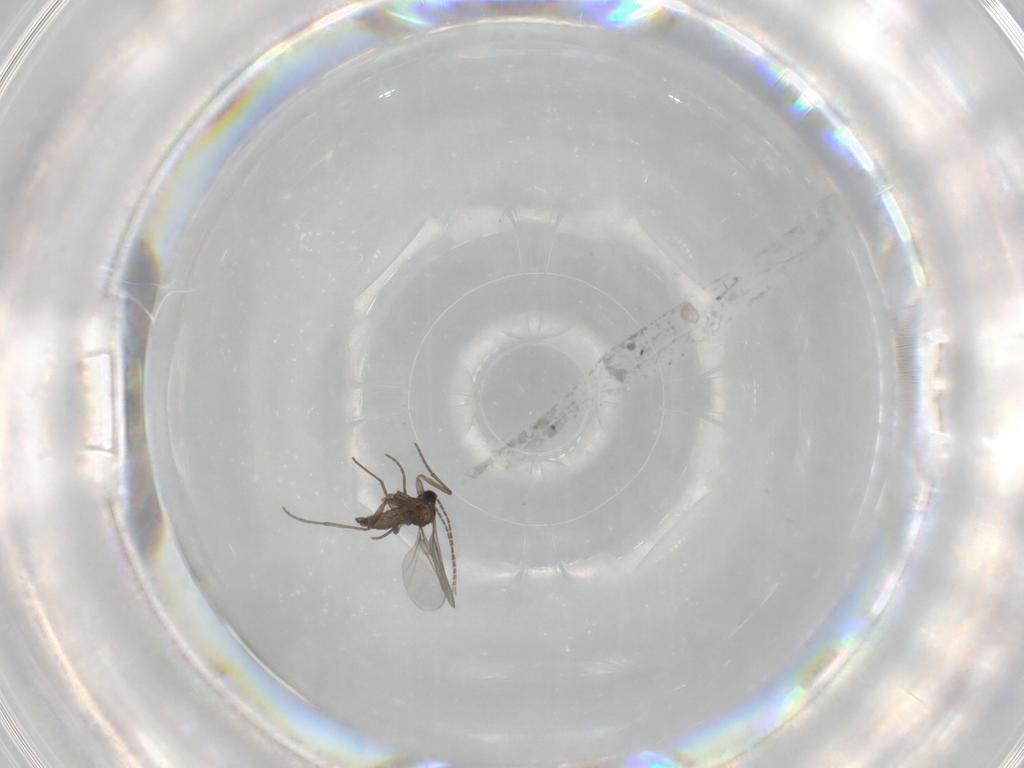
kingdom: Animalia
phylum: Arthropoda
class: Insecta
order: Diptera
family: Sciaridae
